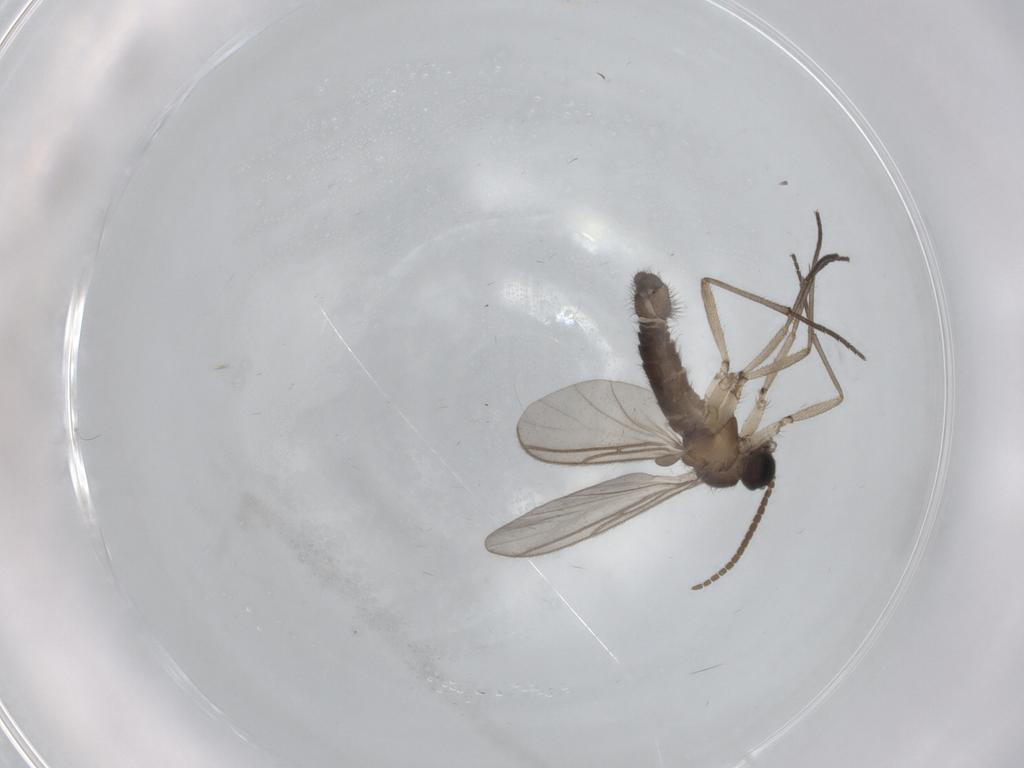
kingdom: Animalia
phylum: Arthropoda
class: Insecta
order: Diptera
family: Sciaridae
